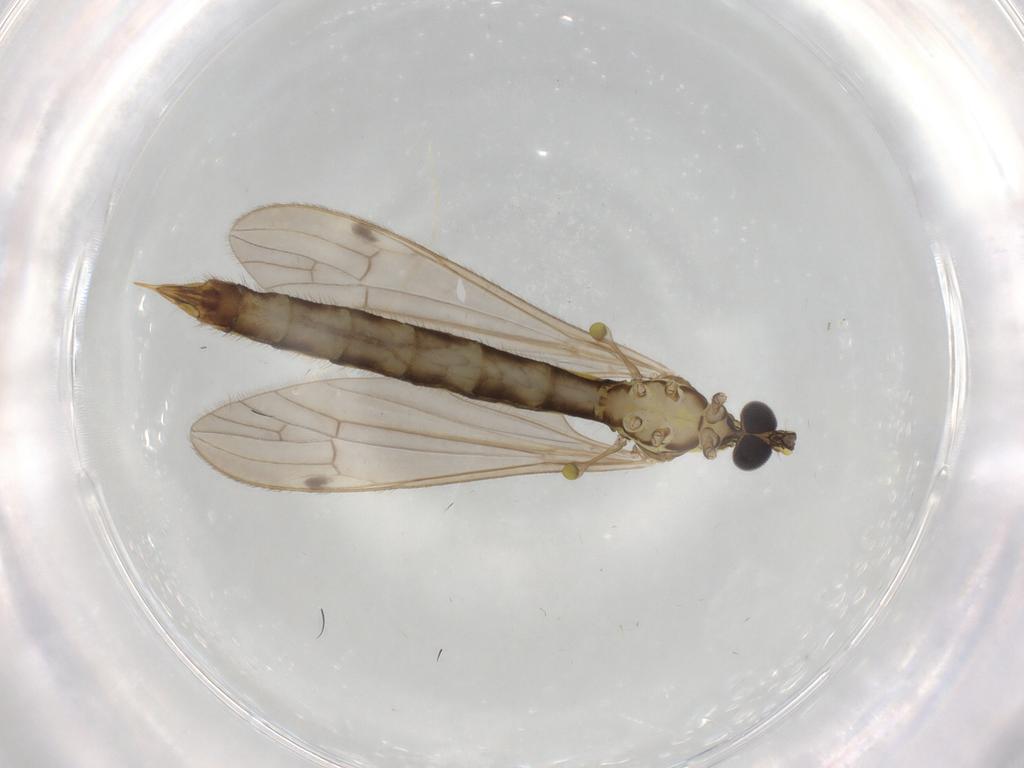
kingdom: Animalia
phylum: Arthropoda
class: Insecta
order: Diptera
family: Limoniidae
